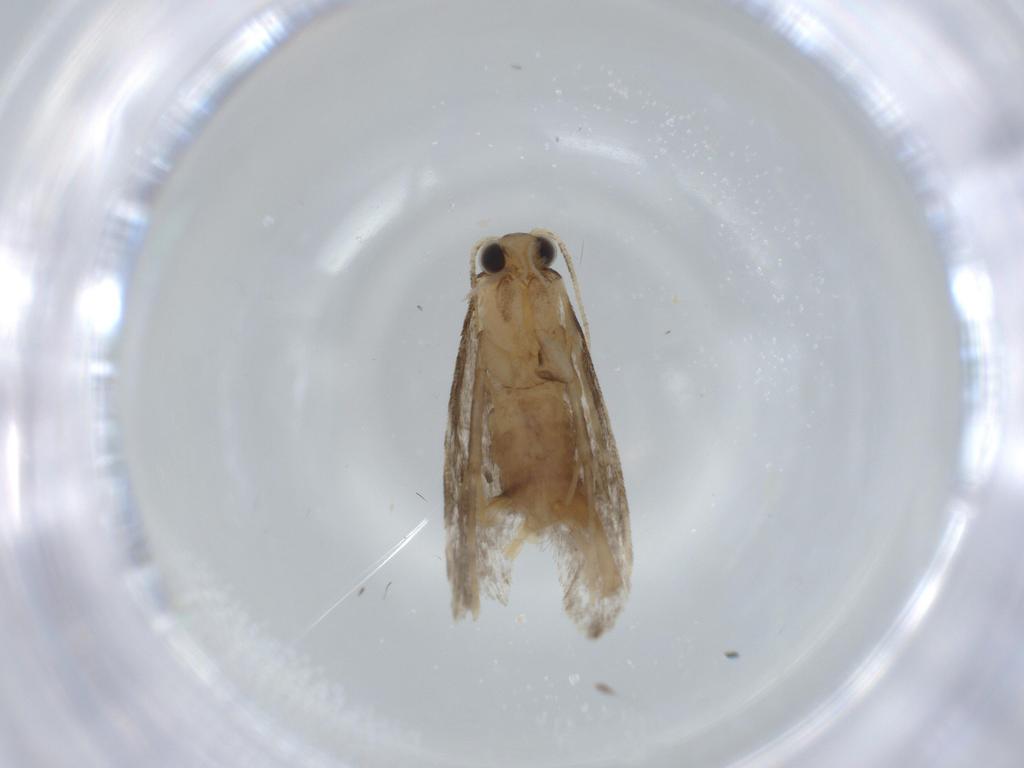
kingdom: Animalia
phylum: Arthropoda
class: Insecta
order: Lepidoptera
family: Tineidae
